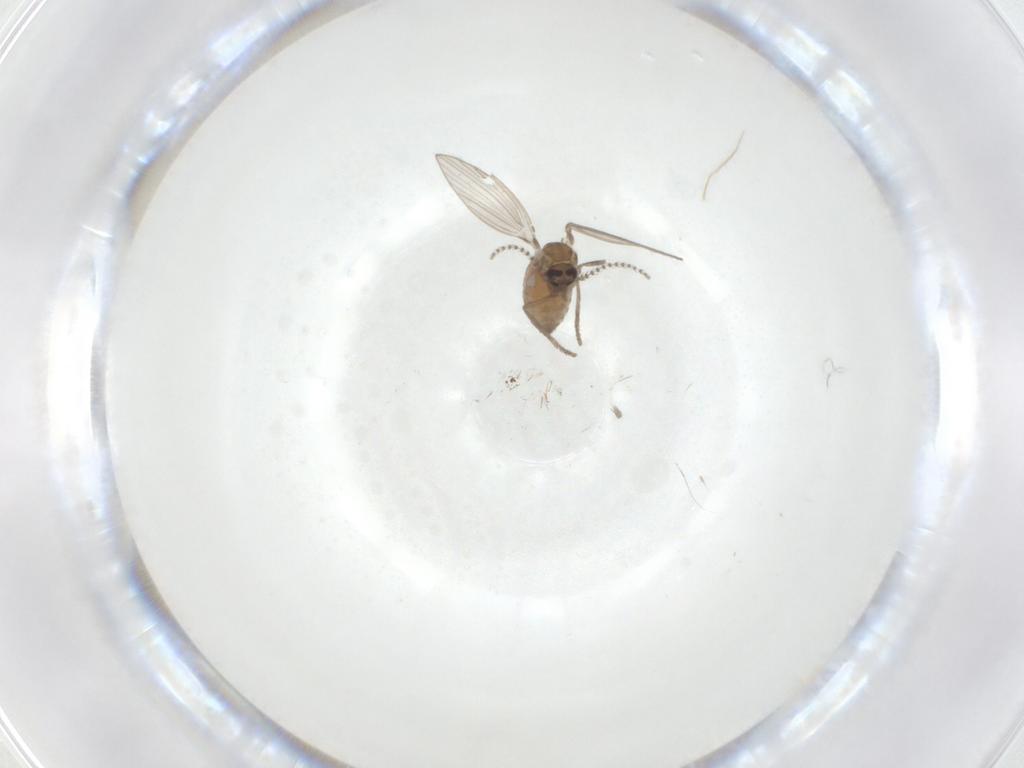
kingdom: Animalia
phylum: Arthropoda
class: Insecta
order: Diptera
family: Psychodidae
